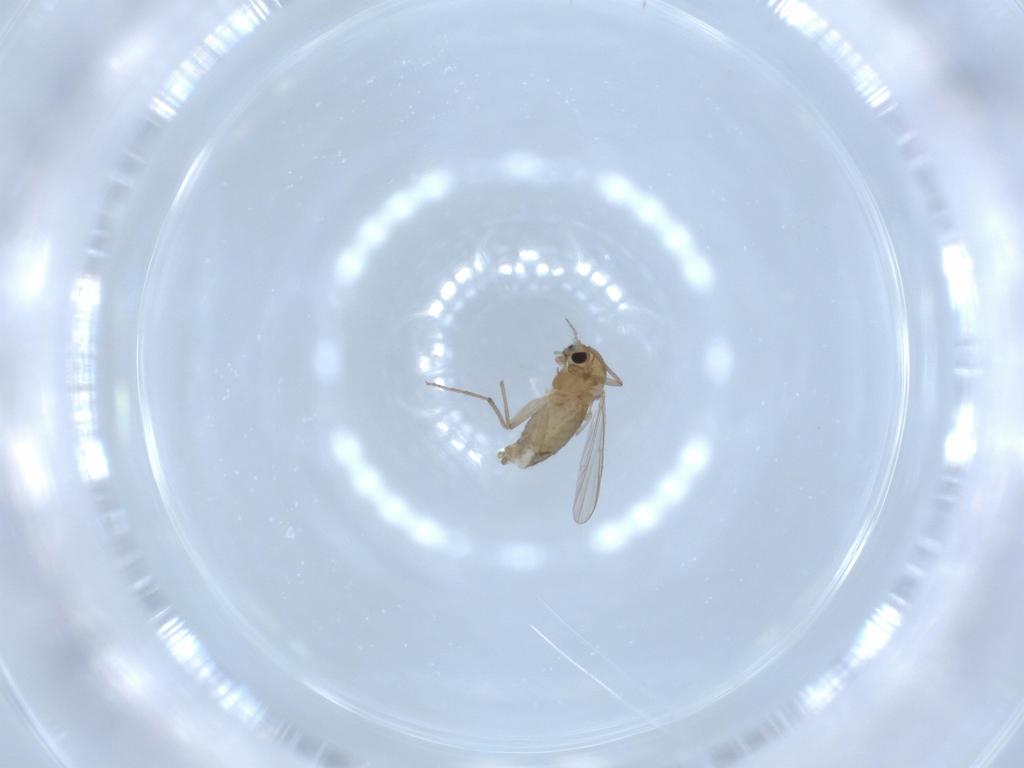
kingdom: Animalia
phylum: Arthropoda
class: Insecta
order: Diptera
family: Chironomidae
